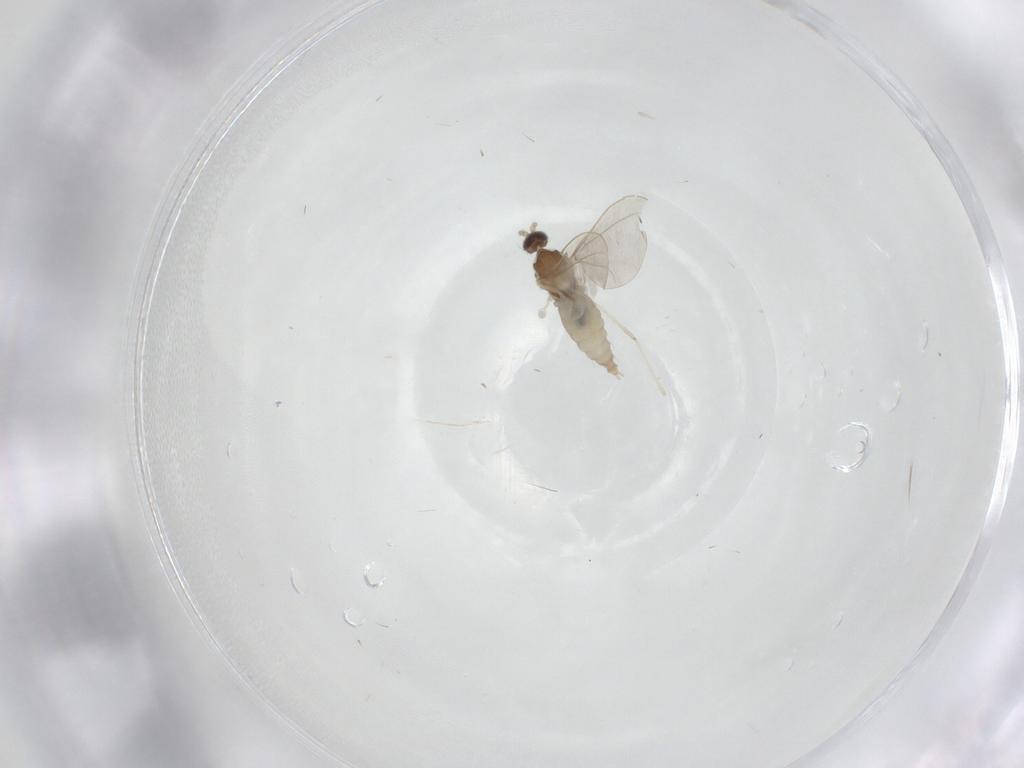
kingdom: Animalia
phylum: Arthropoda
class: Insecta
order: Diptera
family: Cecidomyiidae
